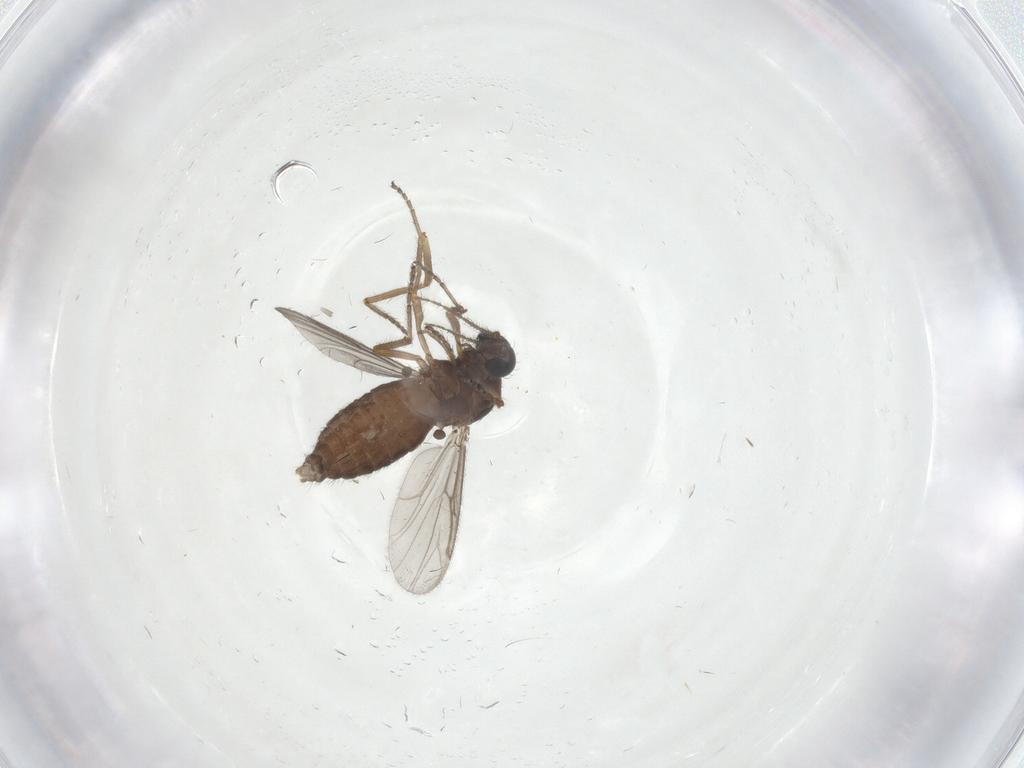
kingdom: Animalia
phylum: Arthropoda
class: Insecta
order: Diptera
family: Ceratopogonidae
